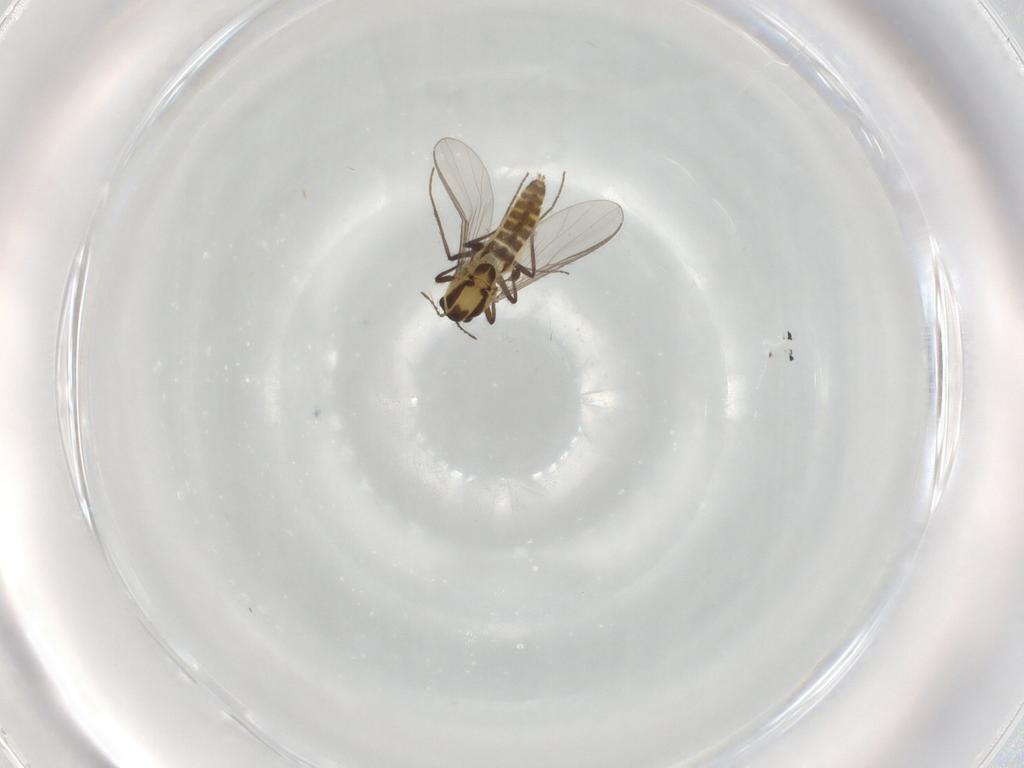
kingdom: Animalia
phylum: Arthropoda
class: Insecta
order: Diptera
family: Chironomidae
